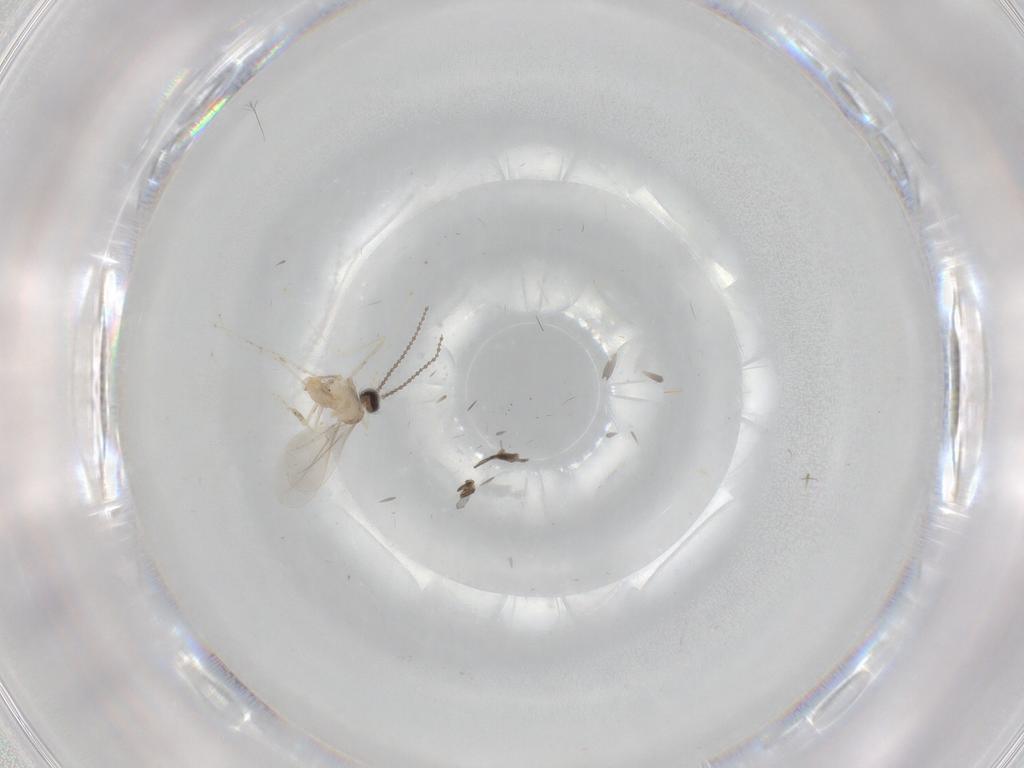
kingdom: Animalia
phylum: Arthropoda
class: Insecta
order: Diptera
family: Cecidomyiidae
